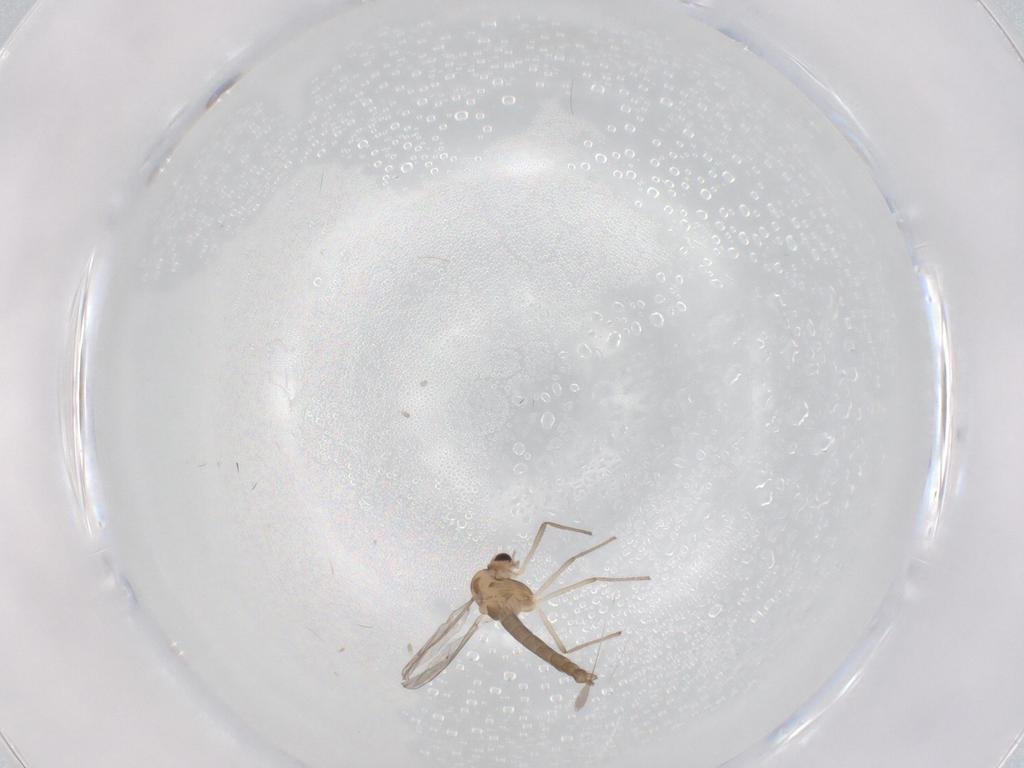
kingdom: Animalia
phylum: Arthropoda
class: Insecta
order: Diptera
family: Chironomidae
